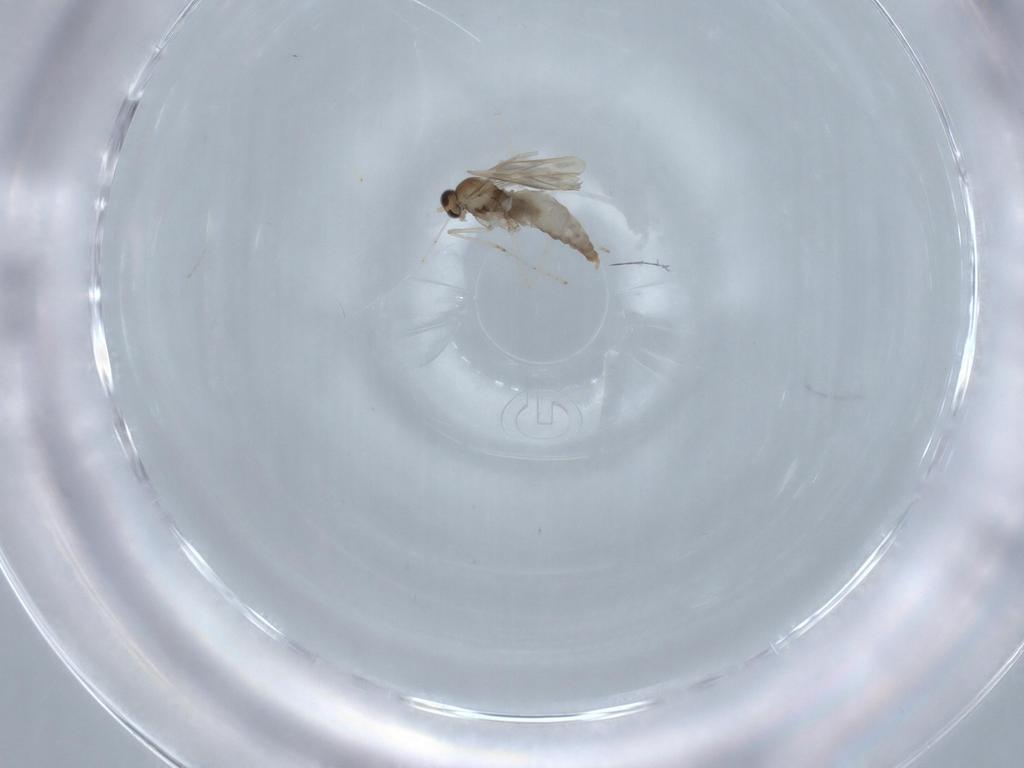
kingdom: Animalia
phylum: Arthropoda
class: Insecta
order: Diptera
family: Cecidomyiidae
